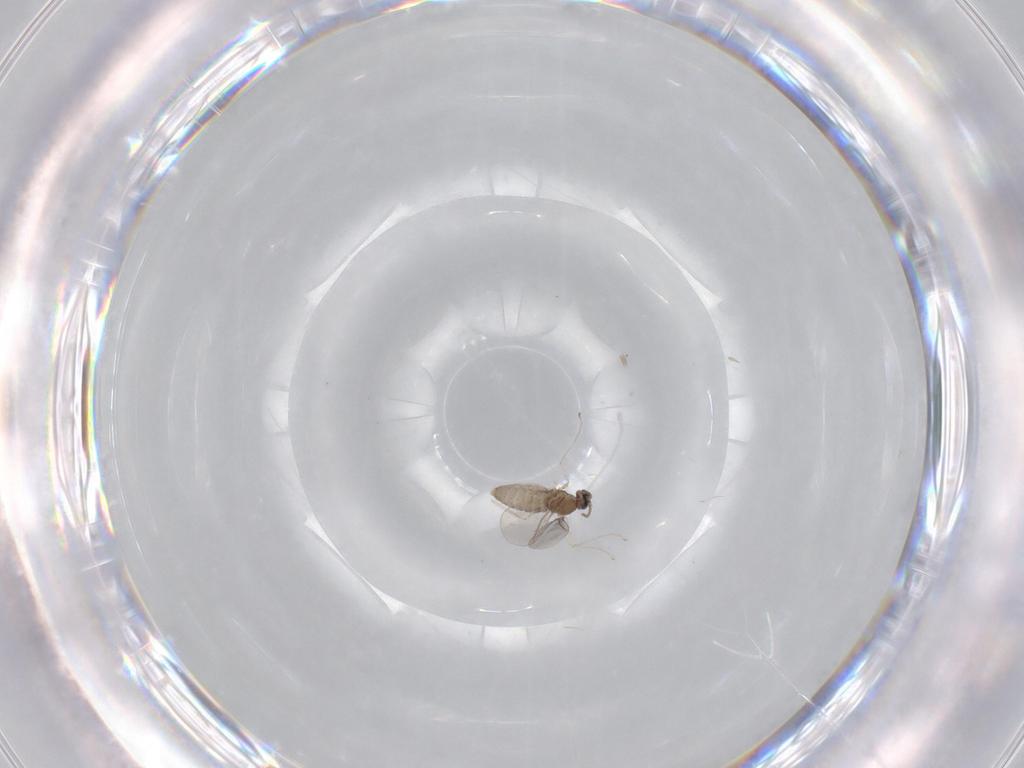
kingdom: Animalia
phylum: Arthropoda
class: Insecta
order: Diptera
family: Cecidomyiidae
